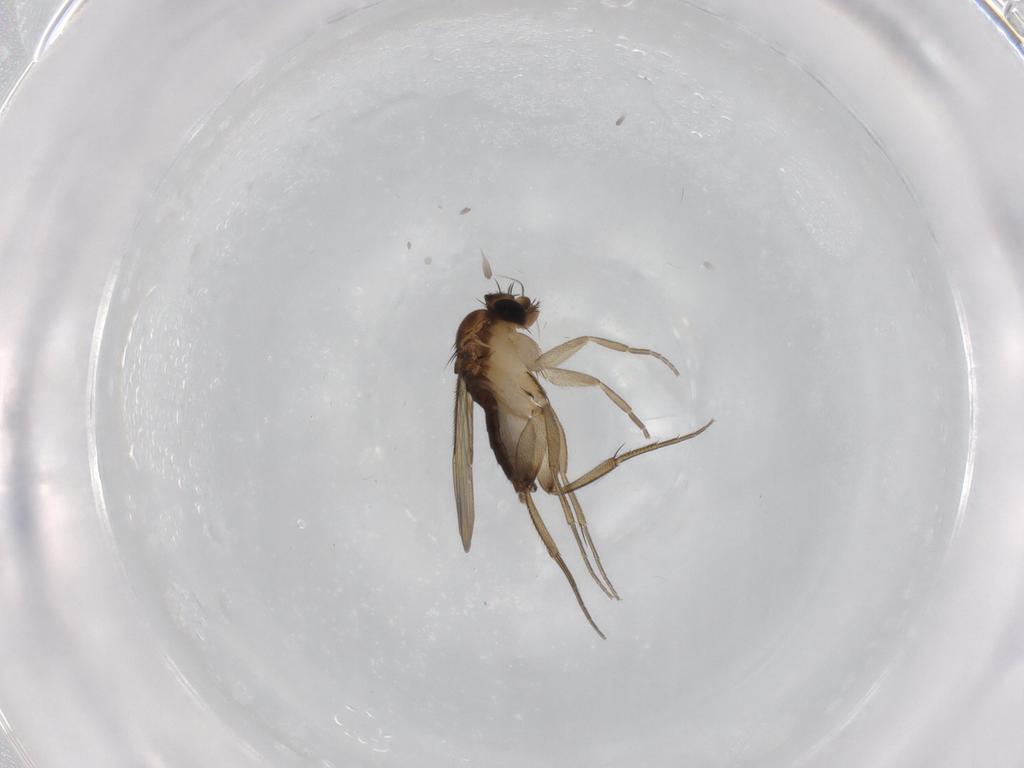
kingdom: Animalia
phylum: Arthropoda
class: Insecta
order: Diptera
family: Phoridae
